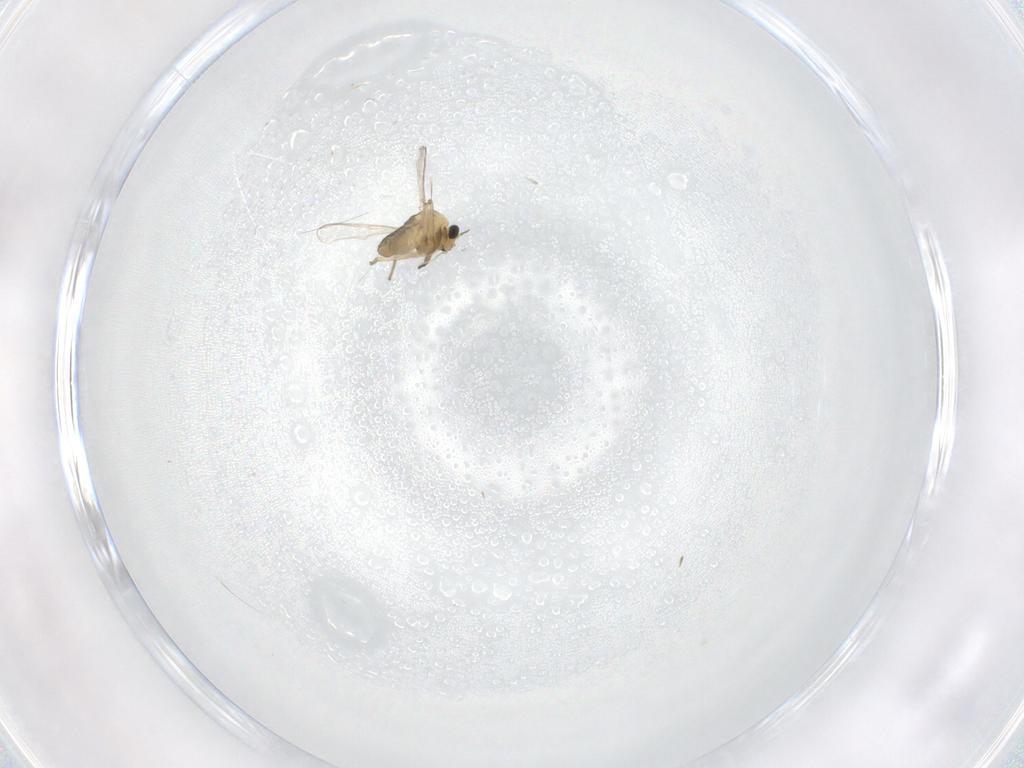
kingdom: Animalia
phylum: Arthropoda
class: Insecta
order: Diptera
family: Chironomidae
